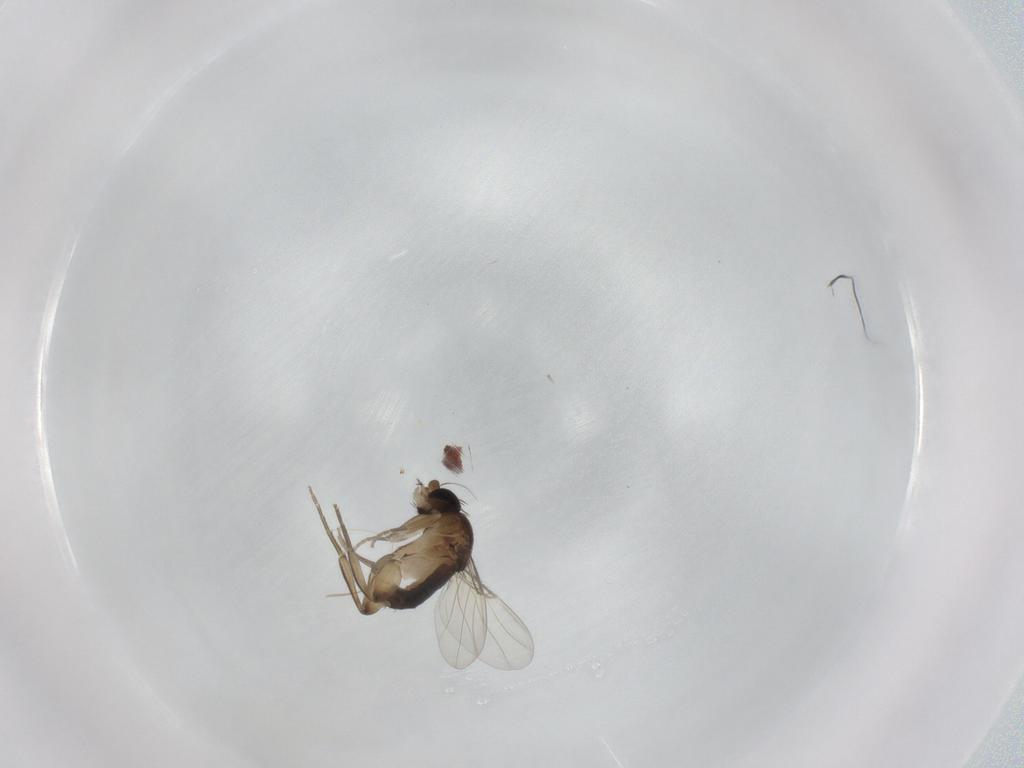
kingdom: Animalia
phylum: Arthropoda
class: Insecta
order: Diptera
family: Phoridae
